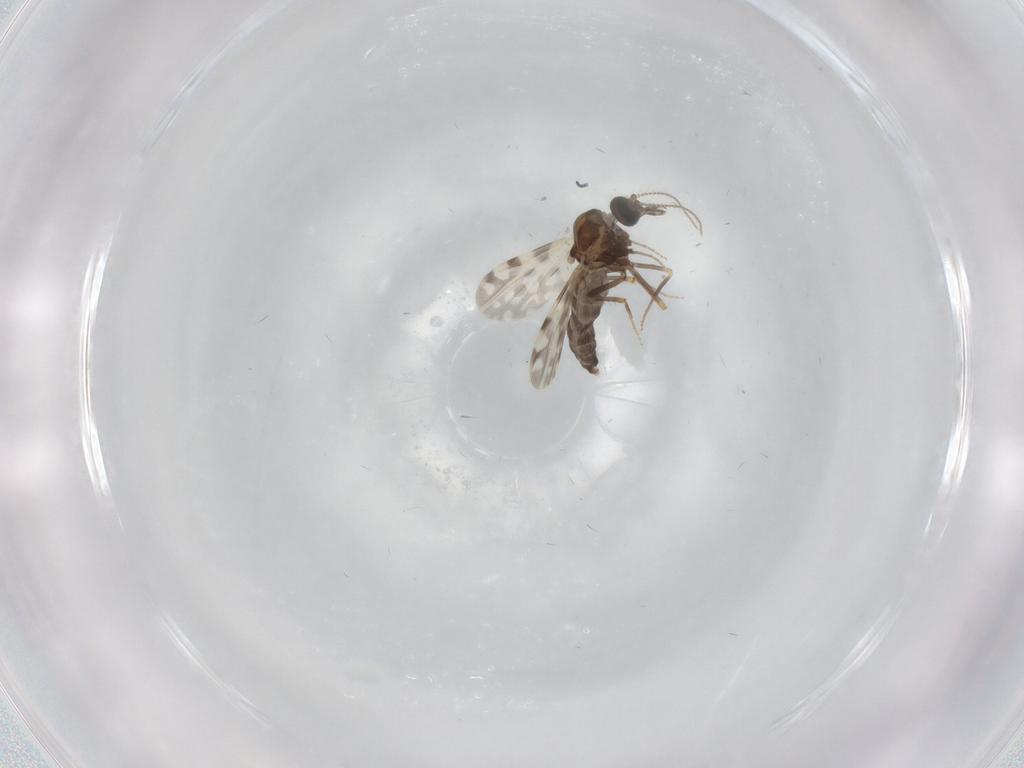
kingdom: Animalia
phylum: Arthropoda
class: Insecta
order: Diptera
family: Ceratopogonidae
